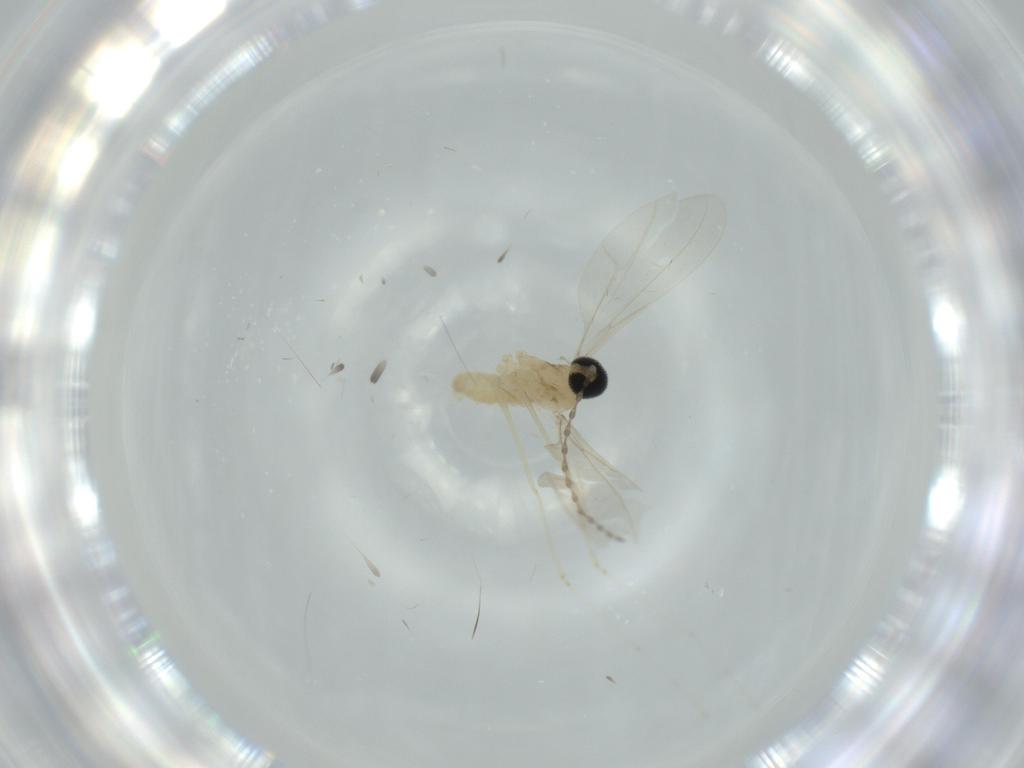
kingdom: Animalia
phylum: Arthropoda
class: Insecta
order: Diptera
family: Cecidomyiidae
